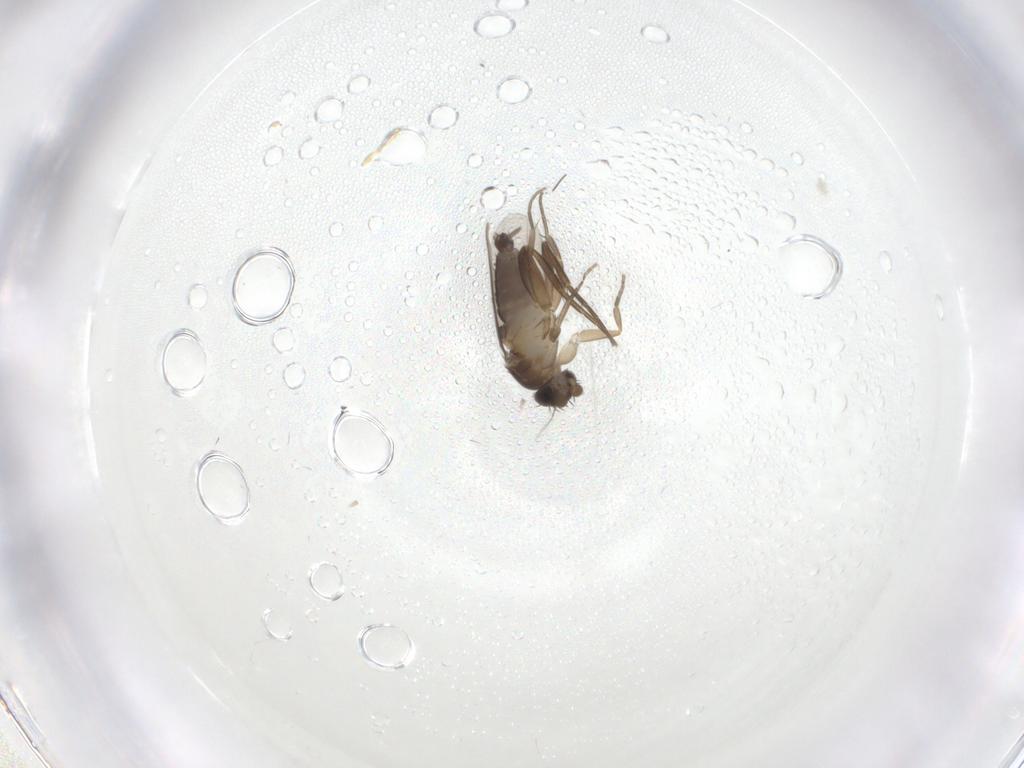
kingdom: Animalia
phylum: Arthropoda
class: Insecta
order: Diptera
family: Phoridae
